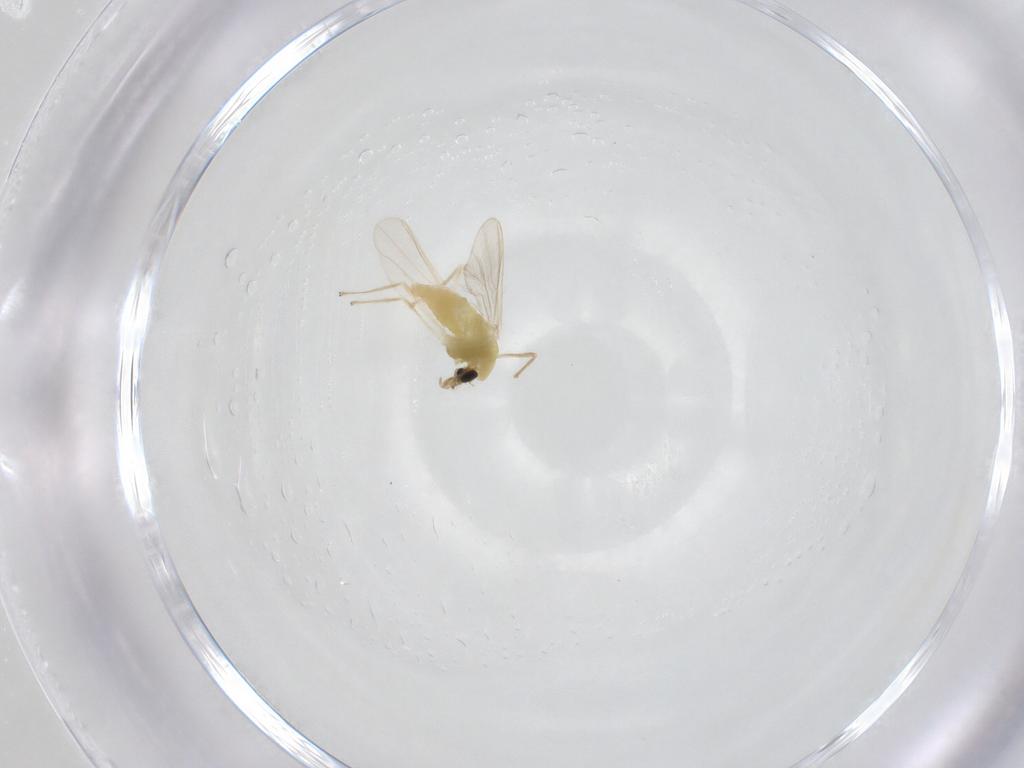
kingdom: Animalia
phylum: Arthropoda
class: Insecta
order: Diptera
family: Chironomidae
